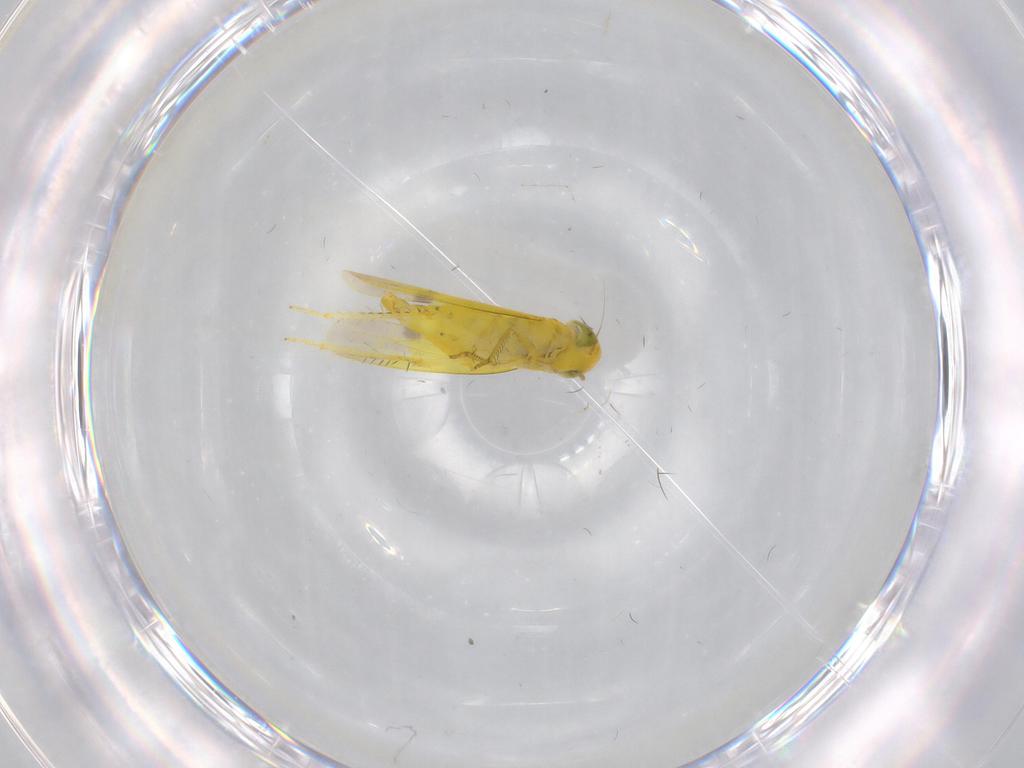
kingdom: Animalia
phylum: Arthropoda
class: Insecta
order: Hemiptera
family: Cicadellidae
